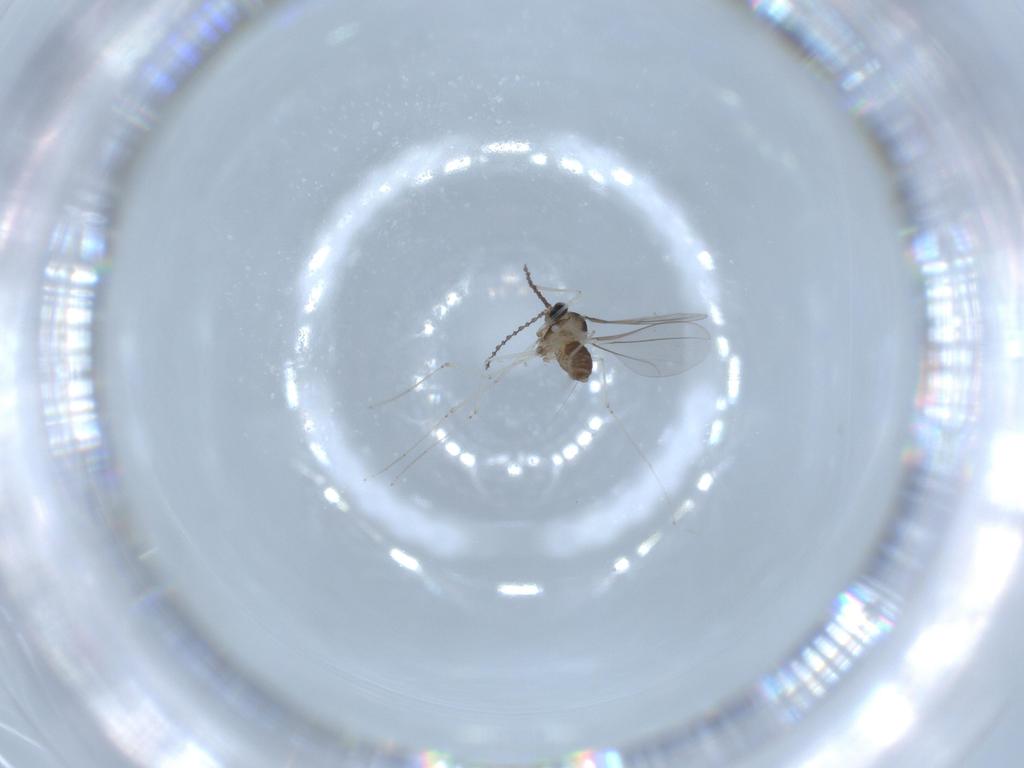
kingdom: Animalia
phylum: Arthropoda
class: Insecta
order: Diptera
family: Cecidomyiidae
